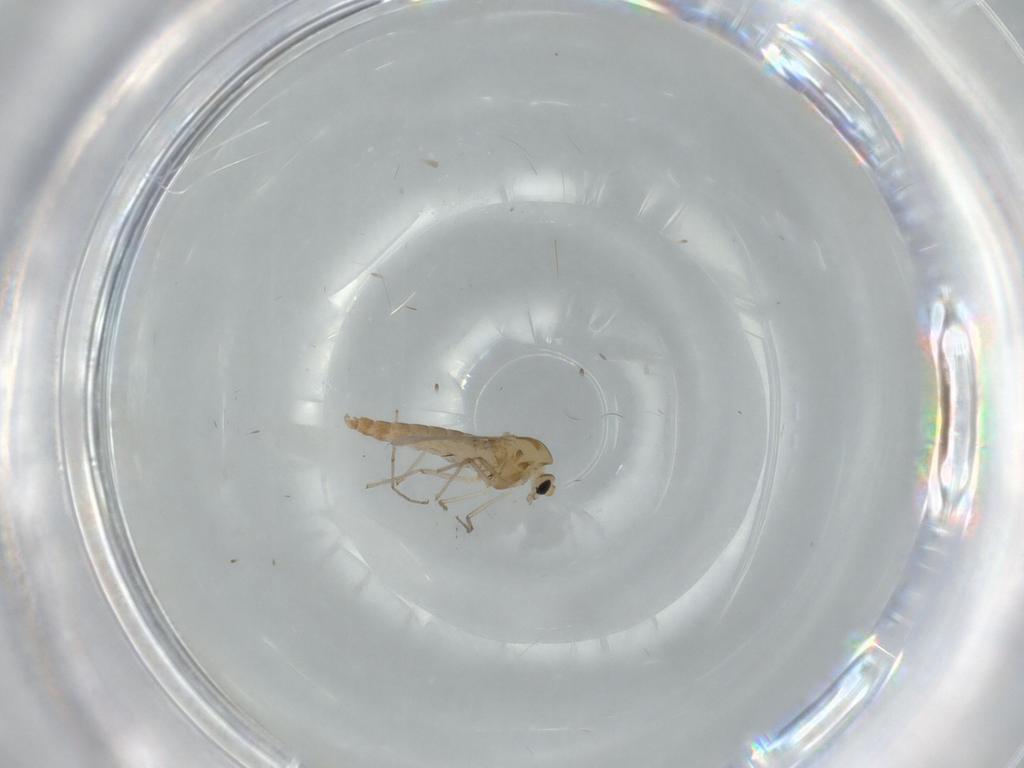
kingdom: Animalia
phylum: Arthropoda
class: Insecta
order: Diptera
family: Chironomidae
